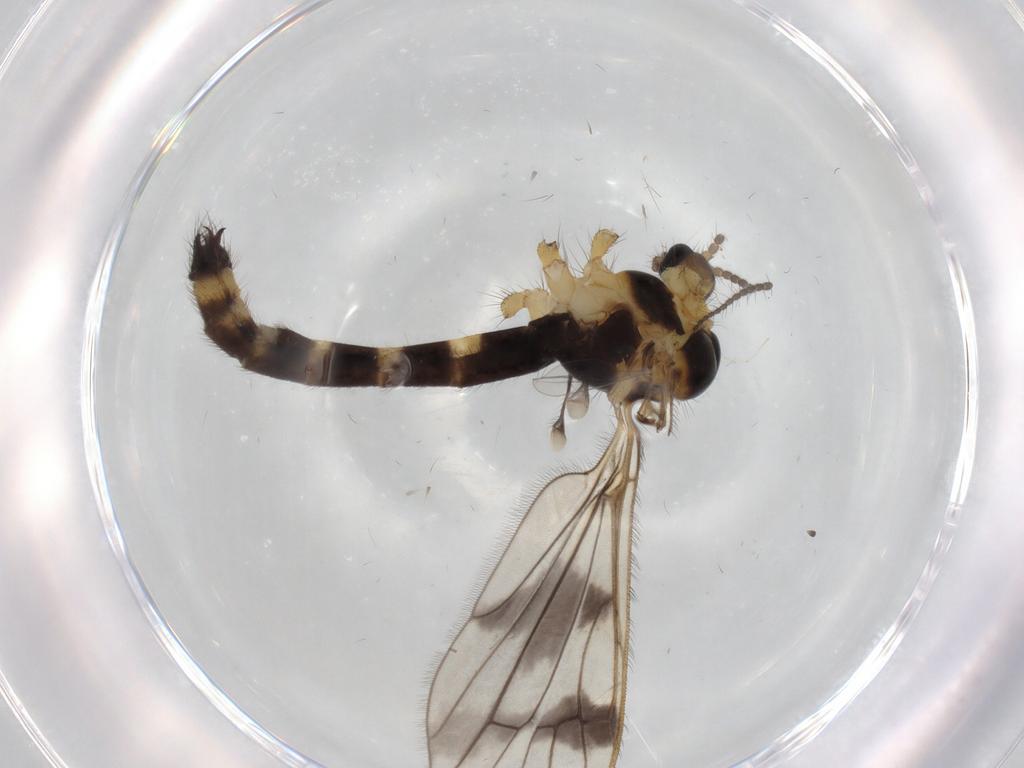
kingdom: Animalia
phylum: Arthropoda
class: Insecta
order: Diptera
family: Limoniidae
